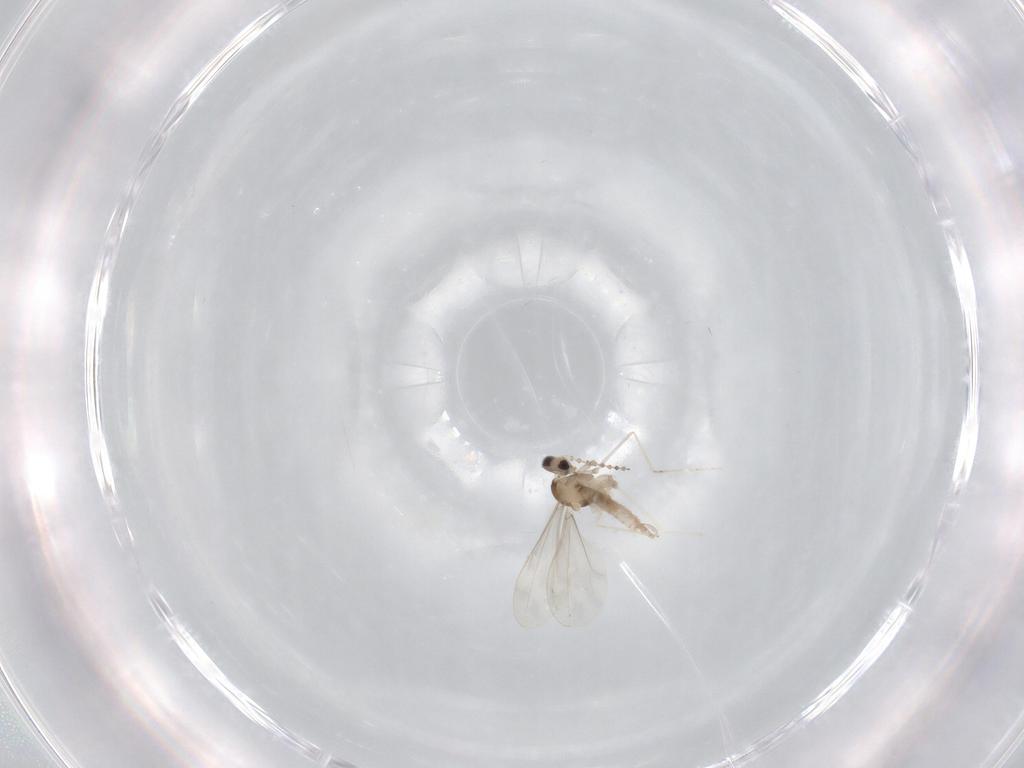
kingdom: Animalia
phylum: Arthropoda
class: Insecta
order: Diptera
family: Cecidomyiidae
